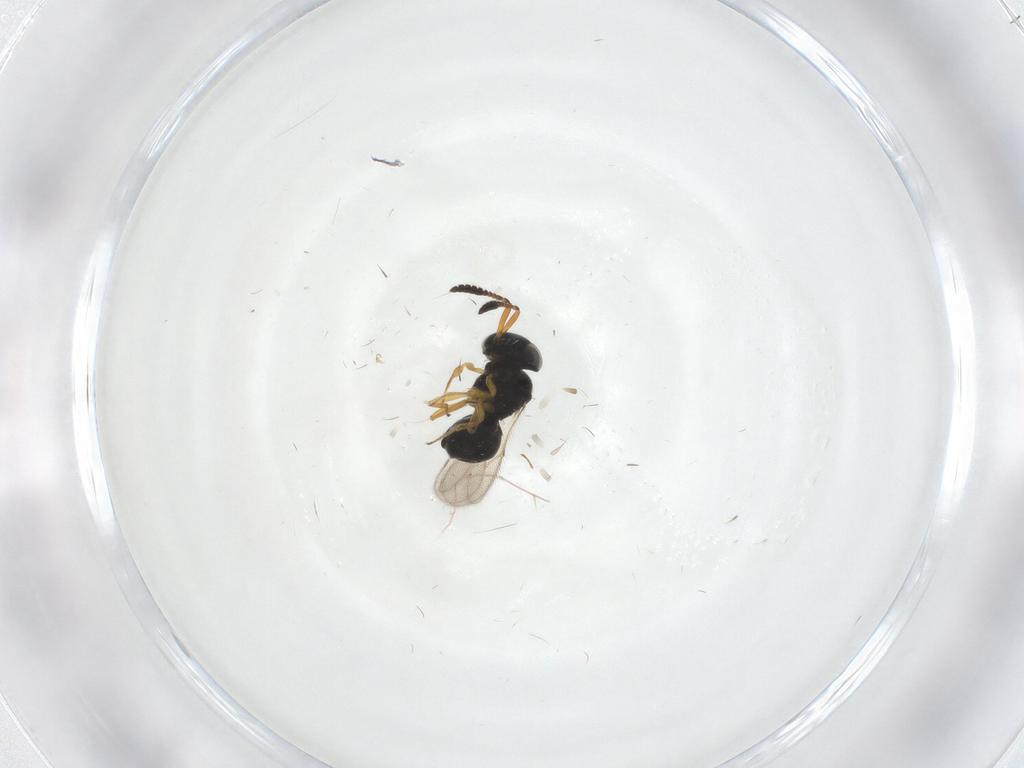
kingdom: Animalia
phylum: Arthropoda
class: Insecta
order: Hymenoptera
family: Scelionidae
